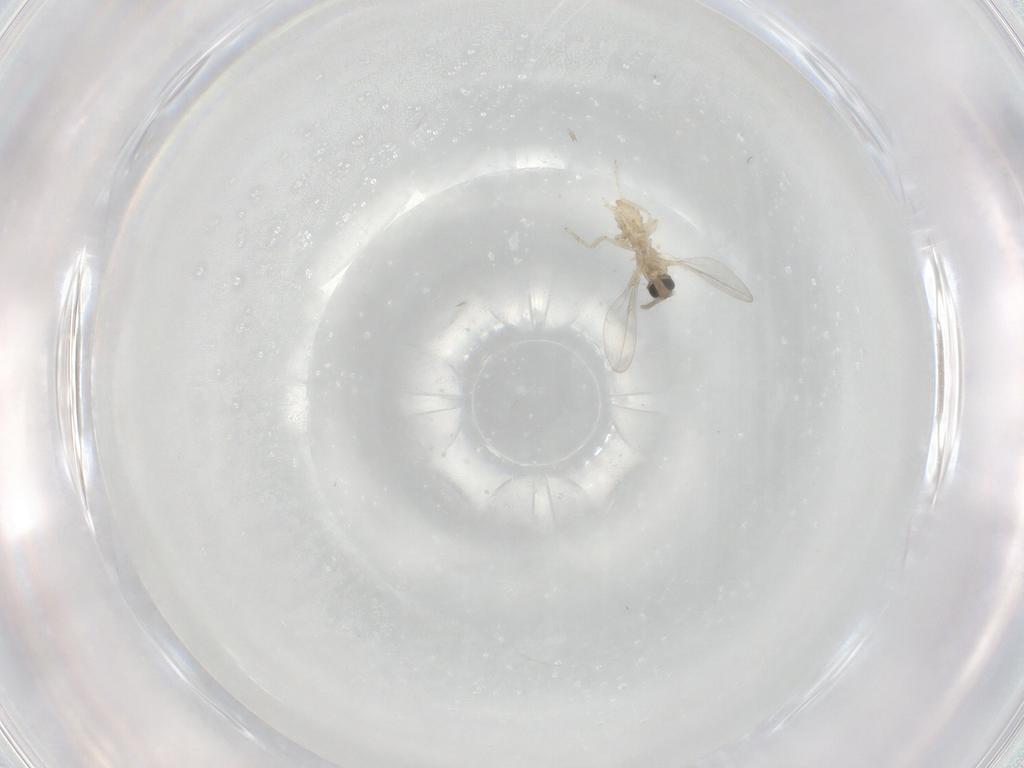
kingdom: Animalia
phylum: Arthropoda
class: Insecta
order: Diptera
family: Cecidomyiidae
